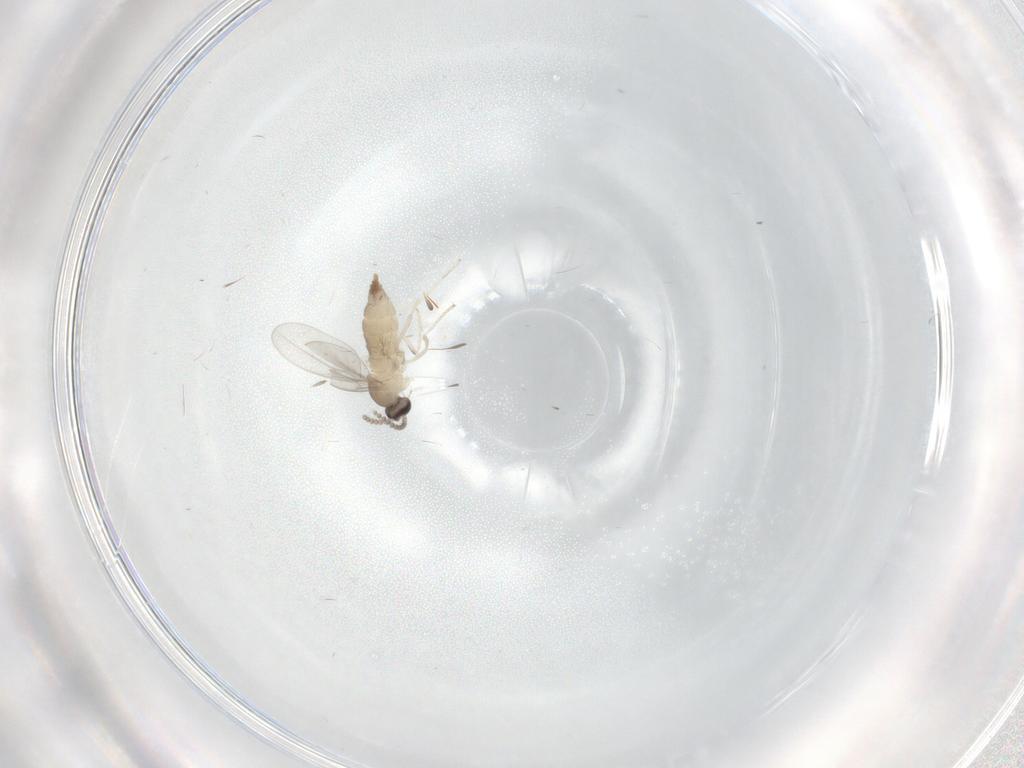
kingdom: Animalia
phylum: Arthropoda
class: Insecta
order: Diptera
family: Cecidomyiidae
